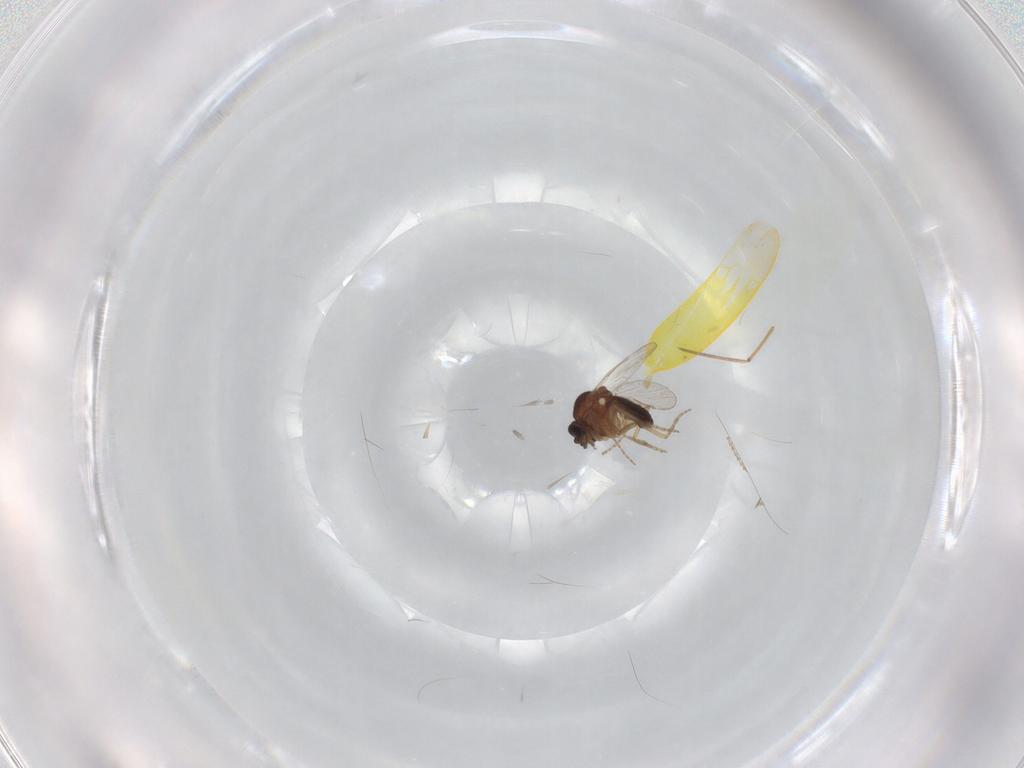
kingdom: Animalia
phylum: Arthropoda
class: Insecta
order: Diptera
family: Cecidomyiidae
